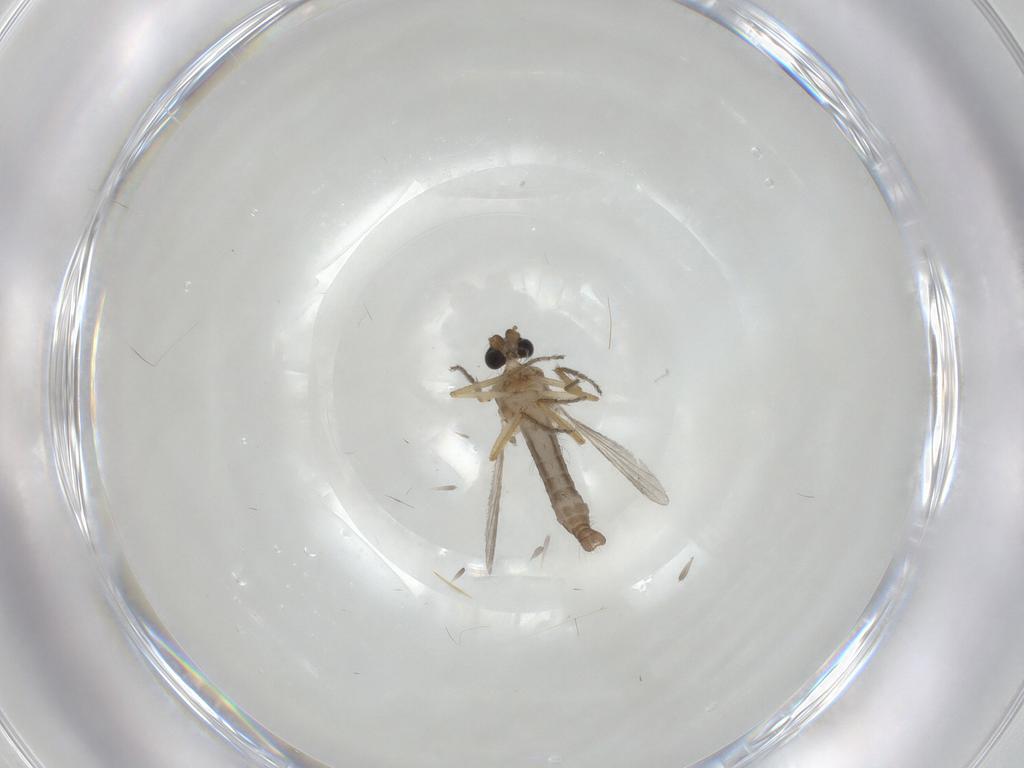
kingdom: Animalia
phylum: Arthropoda
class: Insecta
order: Diptera
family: Ceratopogonidae
